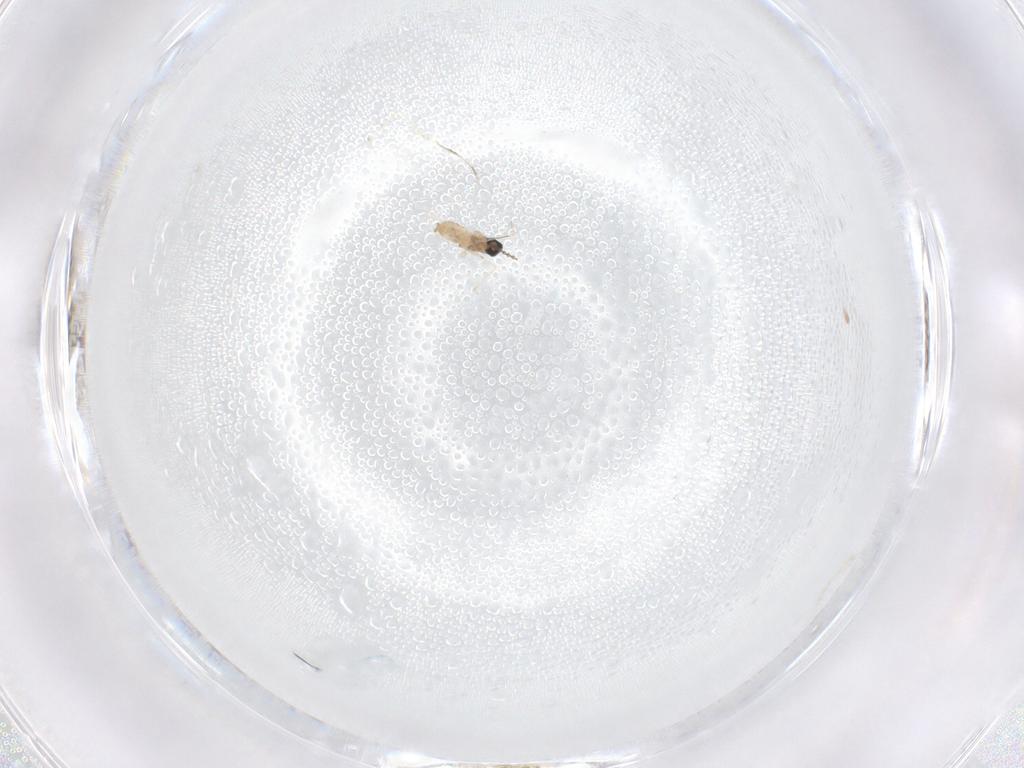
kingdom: Animalia
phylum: Arthropoda
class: Insecta
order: Diptera
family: Cecidomyiidae
